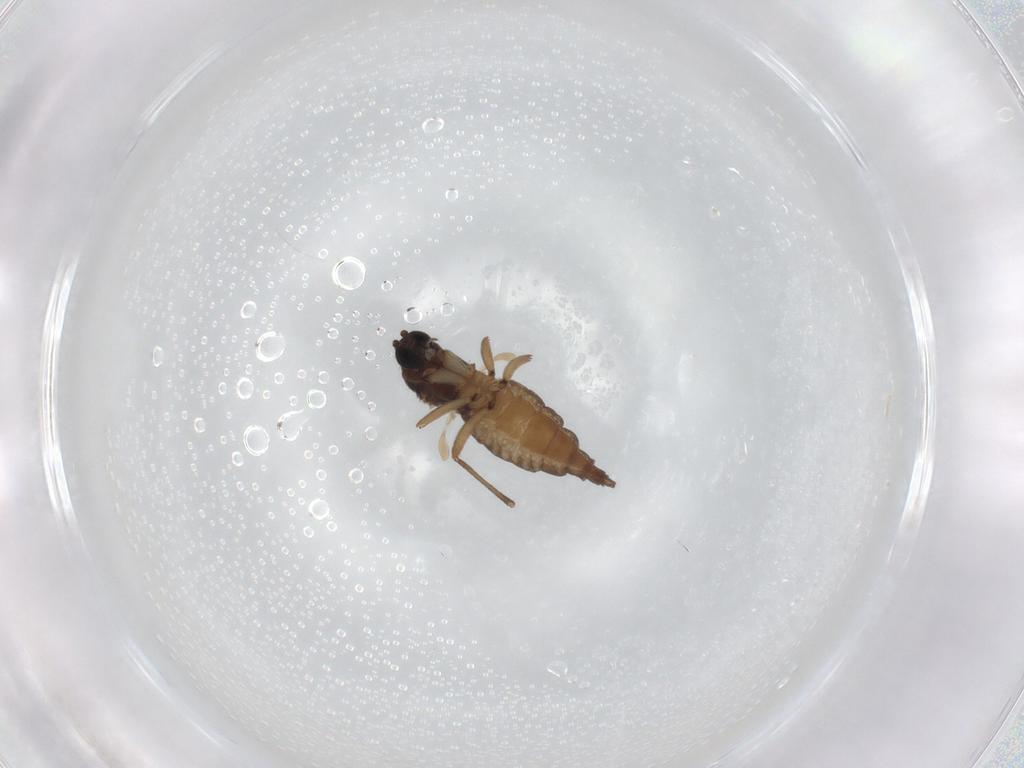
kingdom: Animalia
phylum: Arthropoda
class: Insecta
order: Diptera
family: Sciaridae
